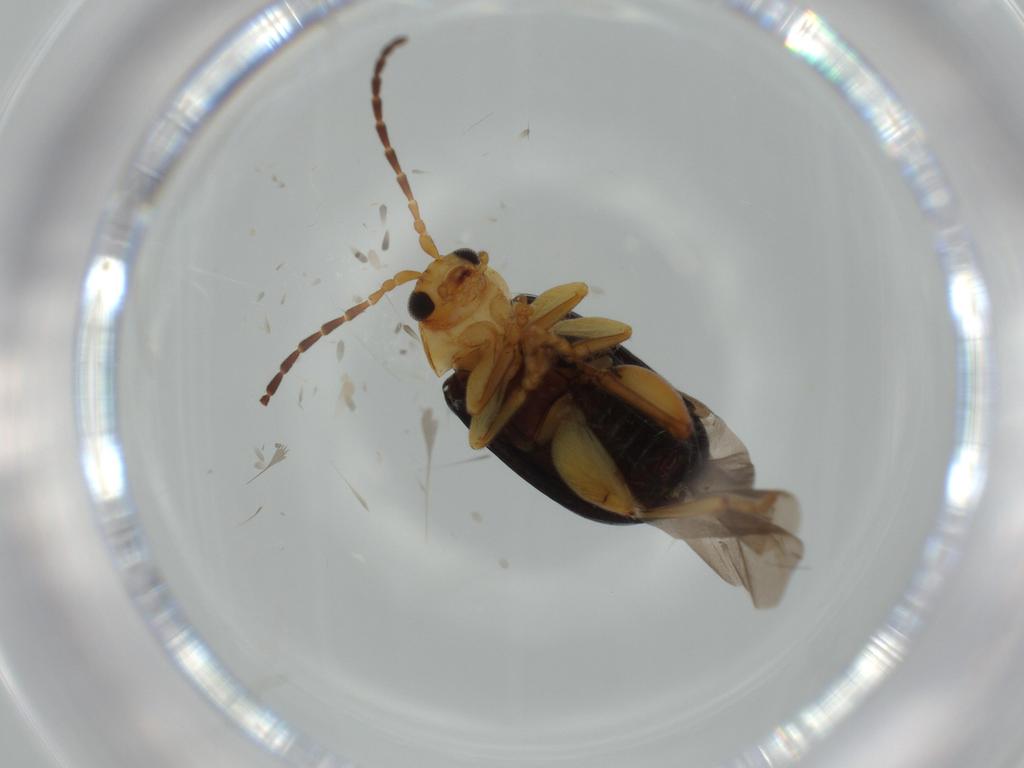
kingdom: Animalia
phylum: Arthropoda
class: Insecta
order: Coleoptera
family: Chrysomelidae
